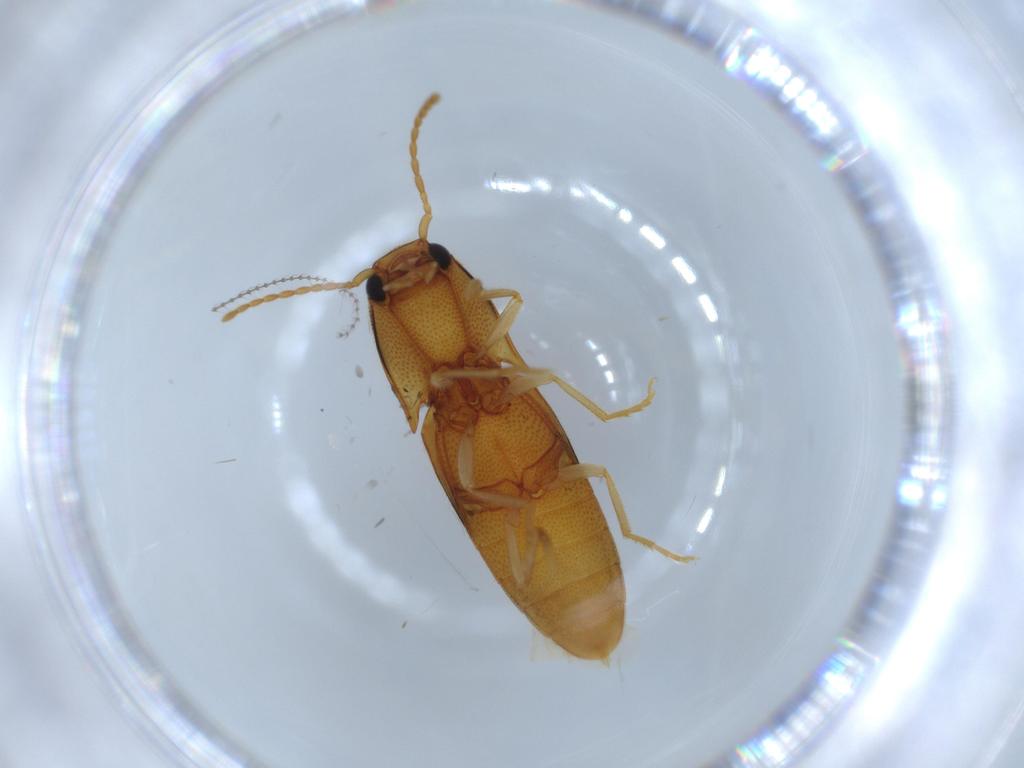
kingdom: Animalia
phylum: Arthropoda
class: Insecta
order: Coleoptera
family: Elateridae
